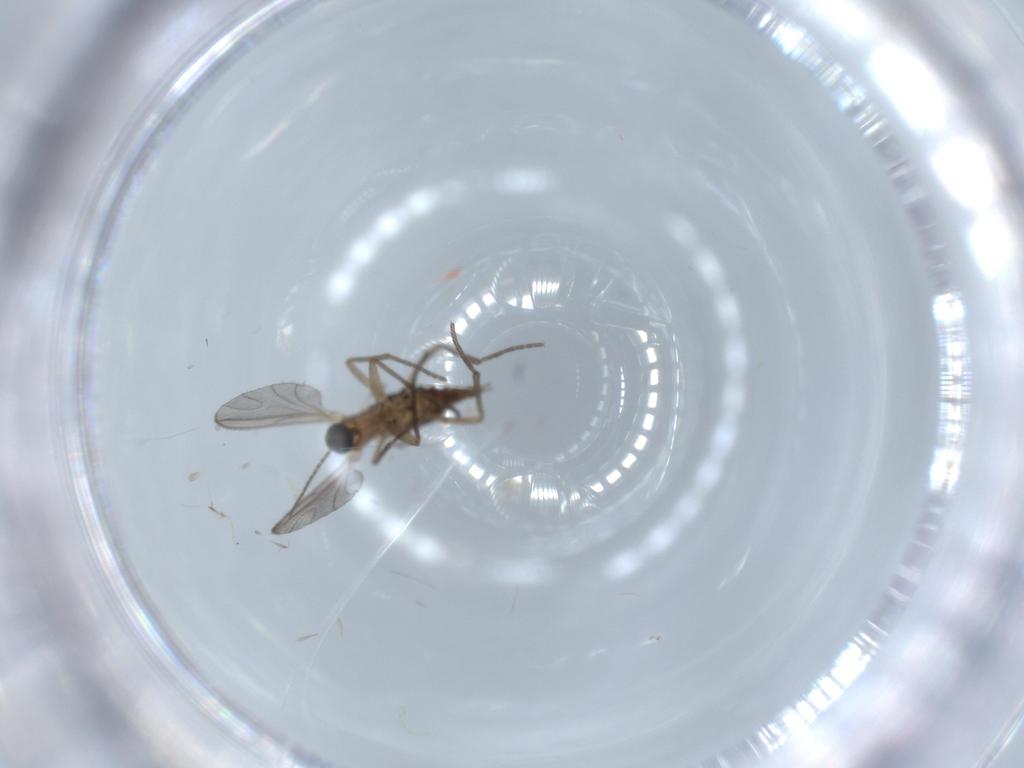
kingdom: Animalia
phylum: Arthropoda
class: Insecta
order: Diptera
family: Sciaridae
